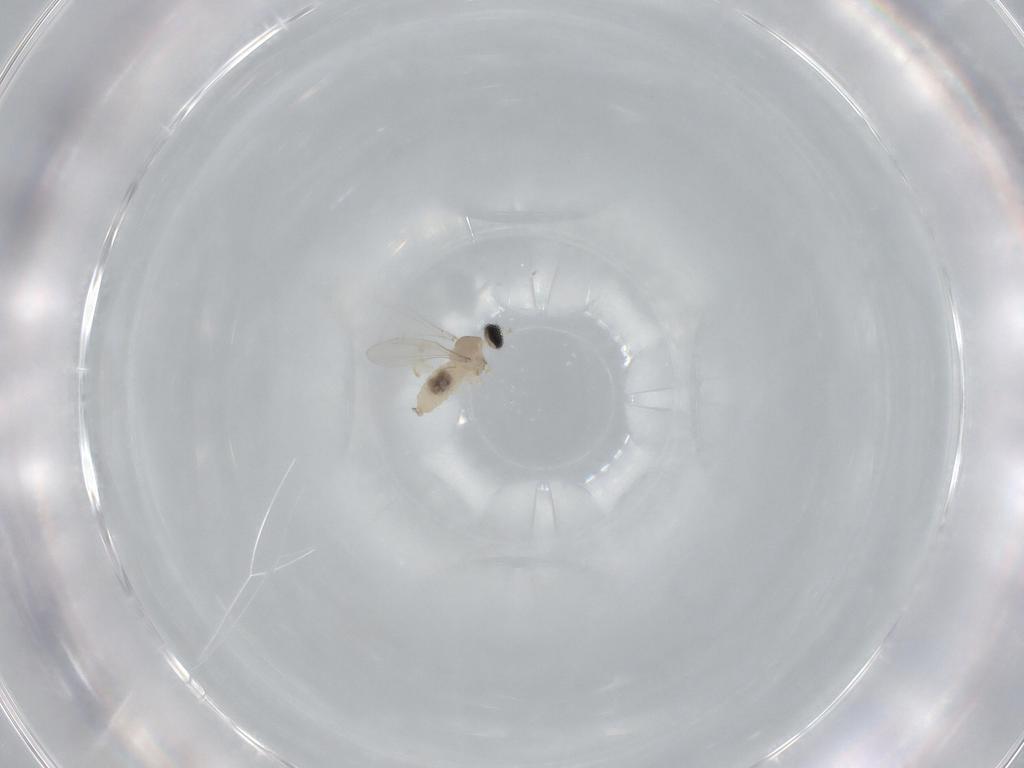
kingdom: Animalia
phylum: Arthropoda
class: Insecta
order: Diptera
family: Cecidomyiidae
